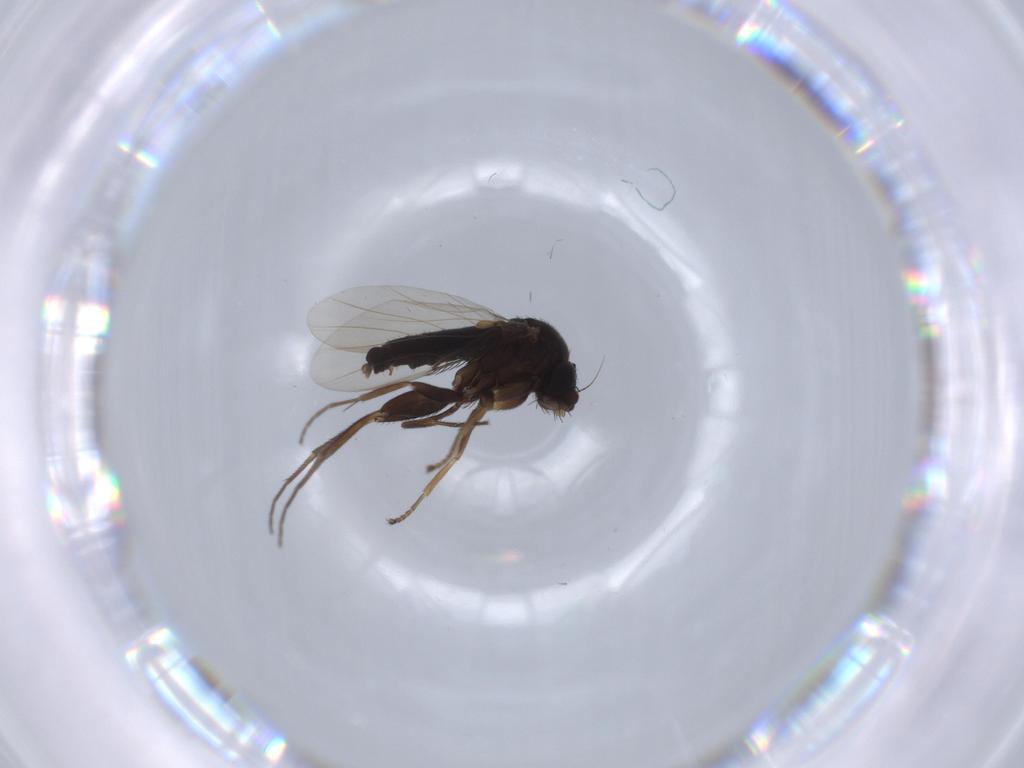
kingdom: Animalia
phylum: Arthropoda
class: Insecta
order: Diptera
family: Phoridae
